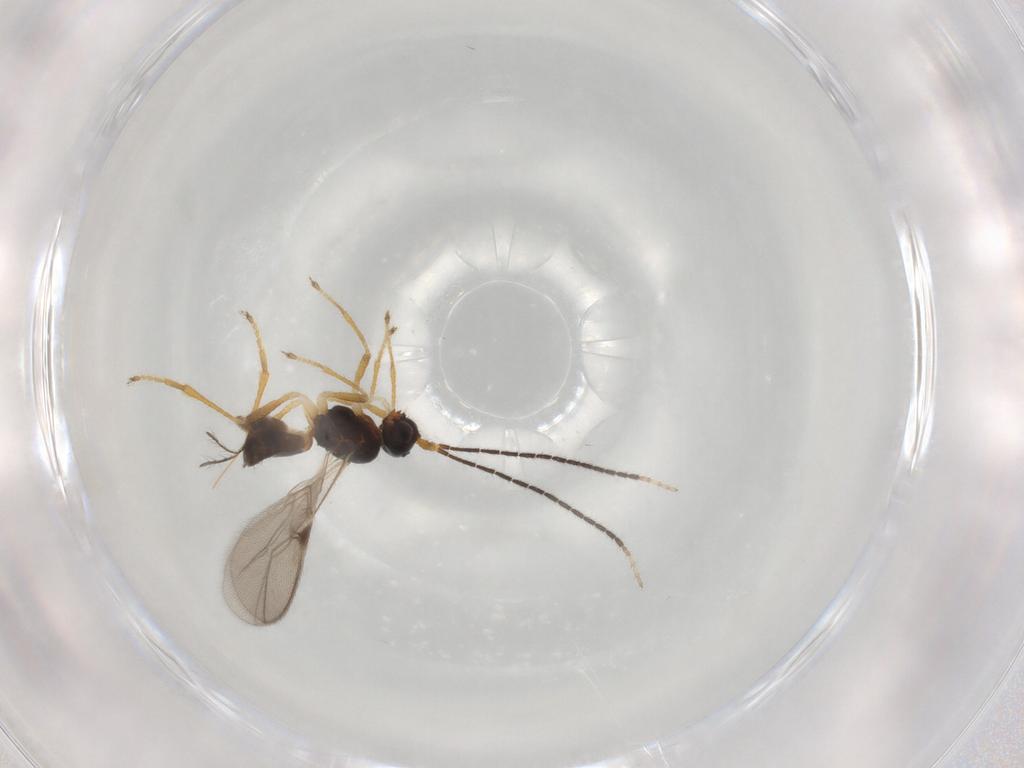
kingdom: Animalia
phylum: Arthropoda
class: Insecta
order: Hymenoptera
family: Braconidae
